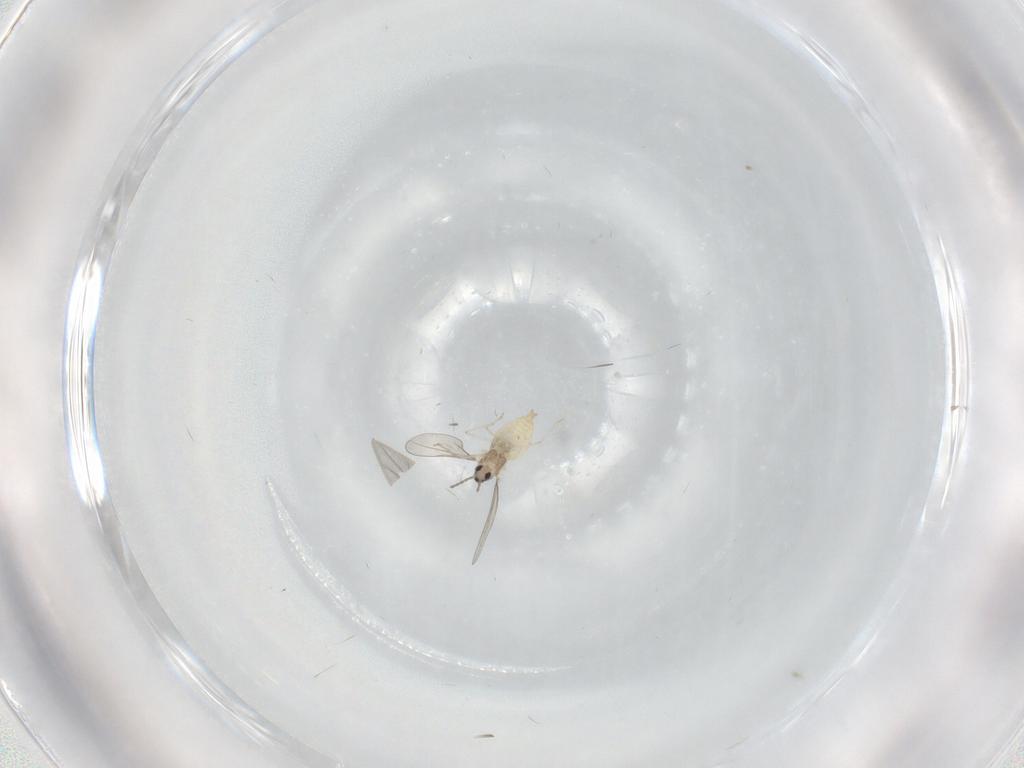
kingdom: Animalia
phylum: Arthropoda
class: Insecta
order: Diptera
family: Cecidomyiidae
